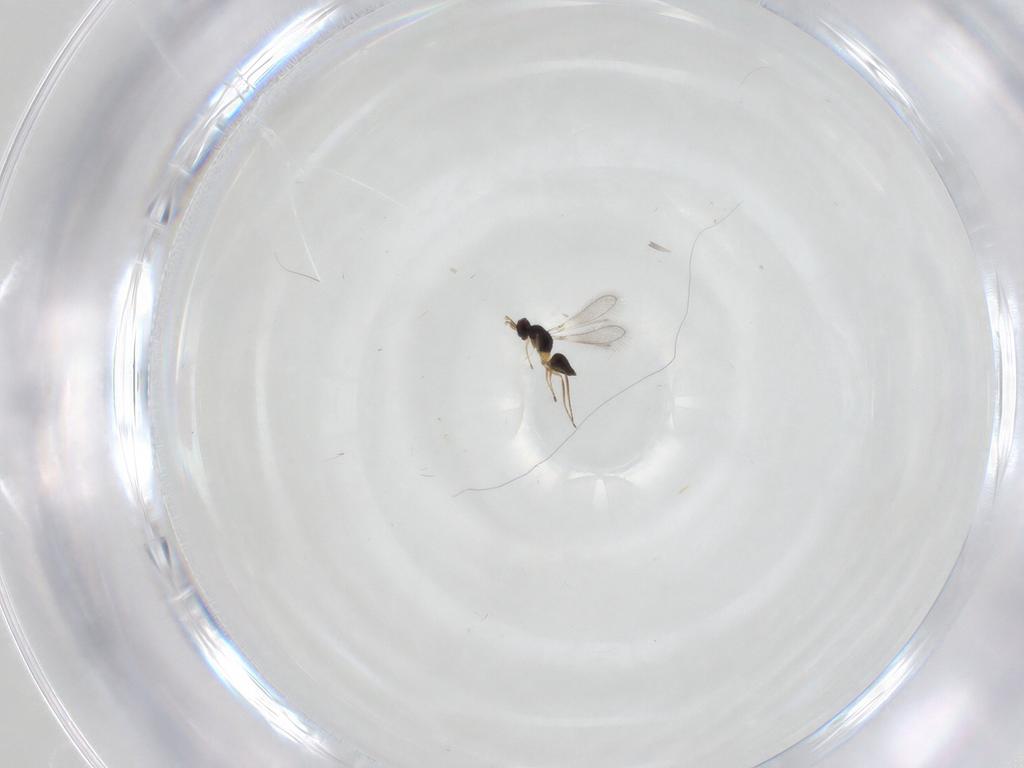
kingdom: Animalia
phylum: Arthropoda
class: Insecta
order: Hymenoptera
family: Mymaridae
